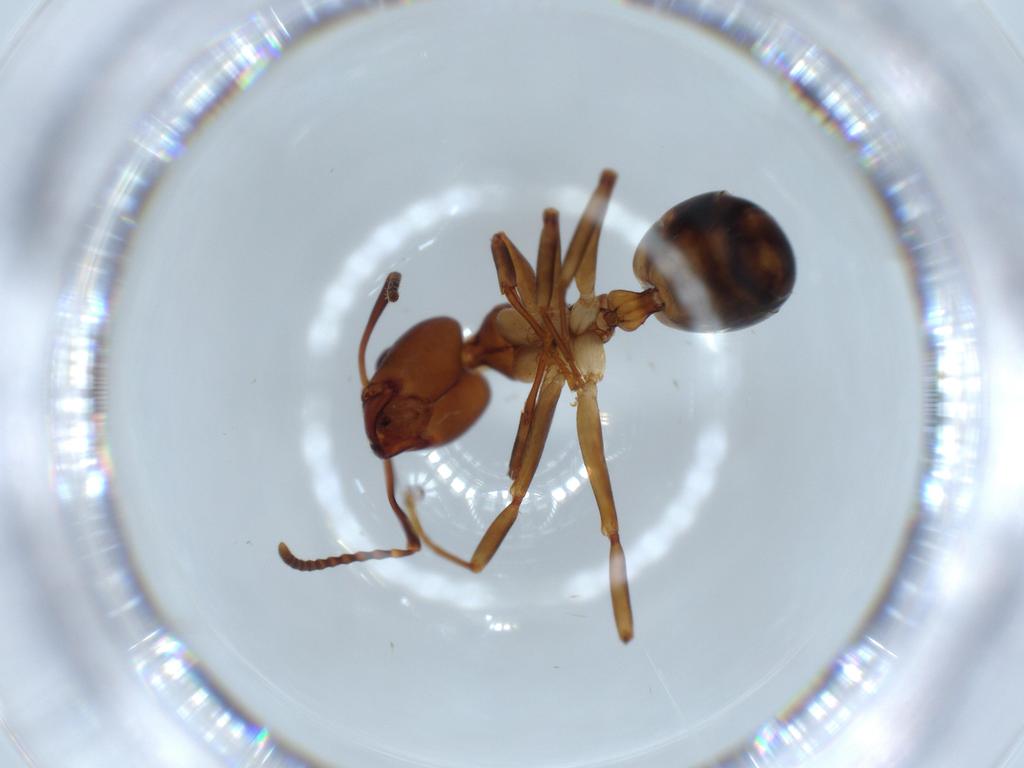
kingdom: Animalia
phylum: Arthropoda
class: Insecta
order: Hymenoptera
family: Formicidae
